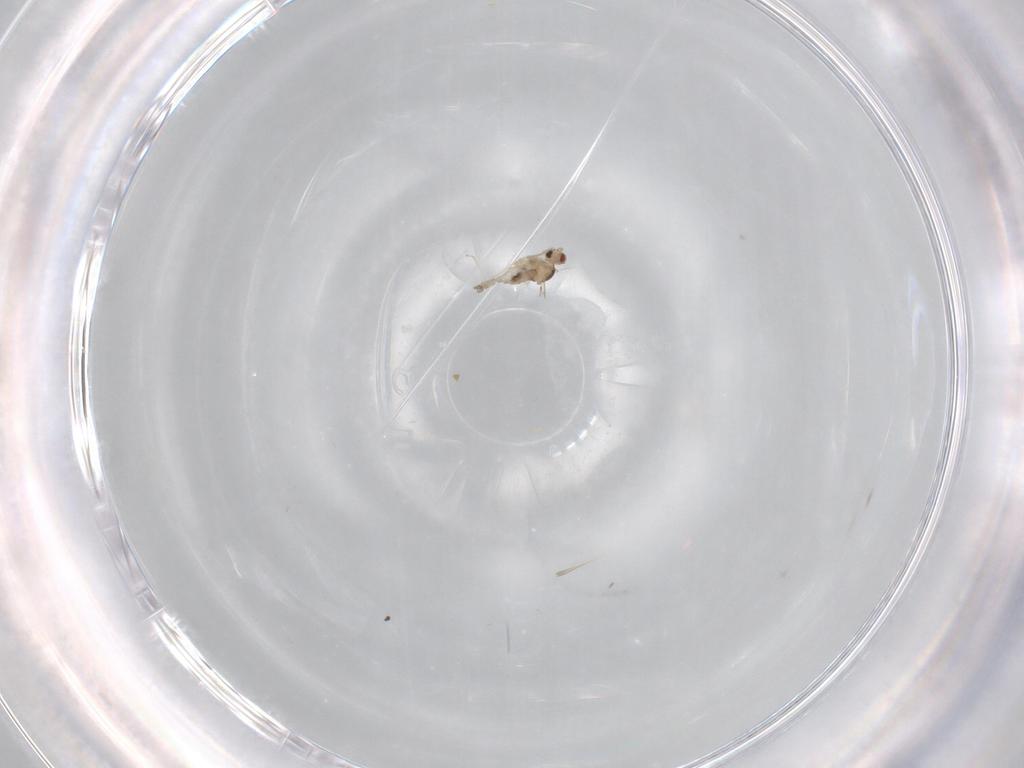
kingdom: Animalia
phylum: Arthropoda
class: Insecta
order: Diptera
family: Cecidomyiidae
